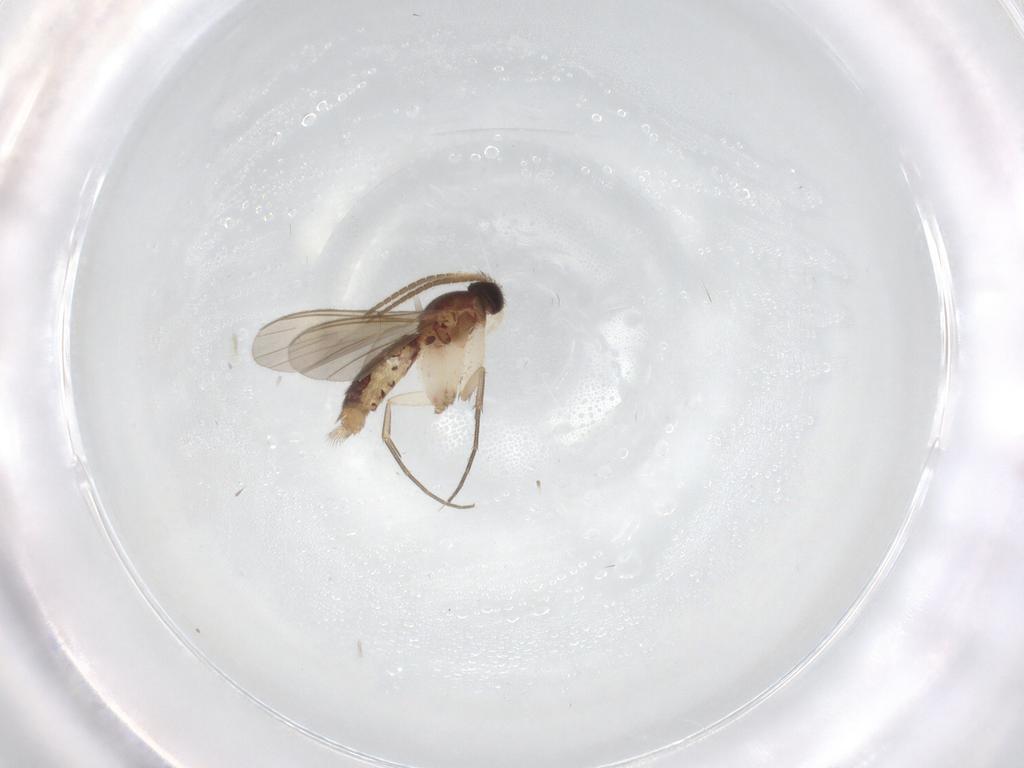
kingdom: Animalia
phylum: Arthropoda
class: Insecta
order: Diptera
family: Mycetophilidae
